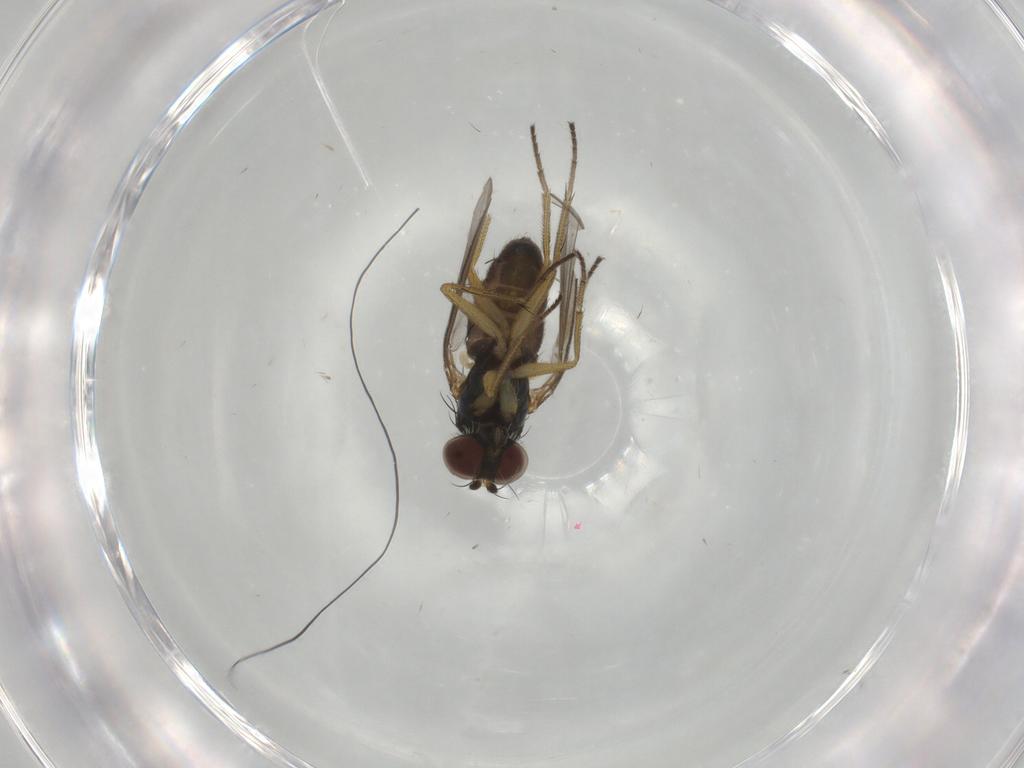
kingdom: Animalia
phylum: Arthropoda
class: Insecta
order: Diptera
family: Dolichopodidae
